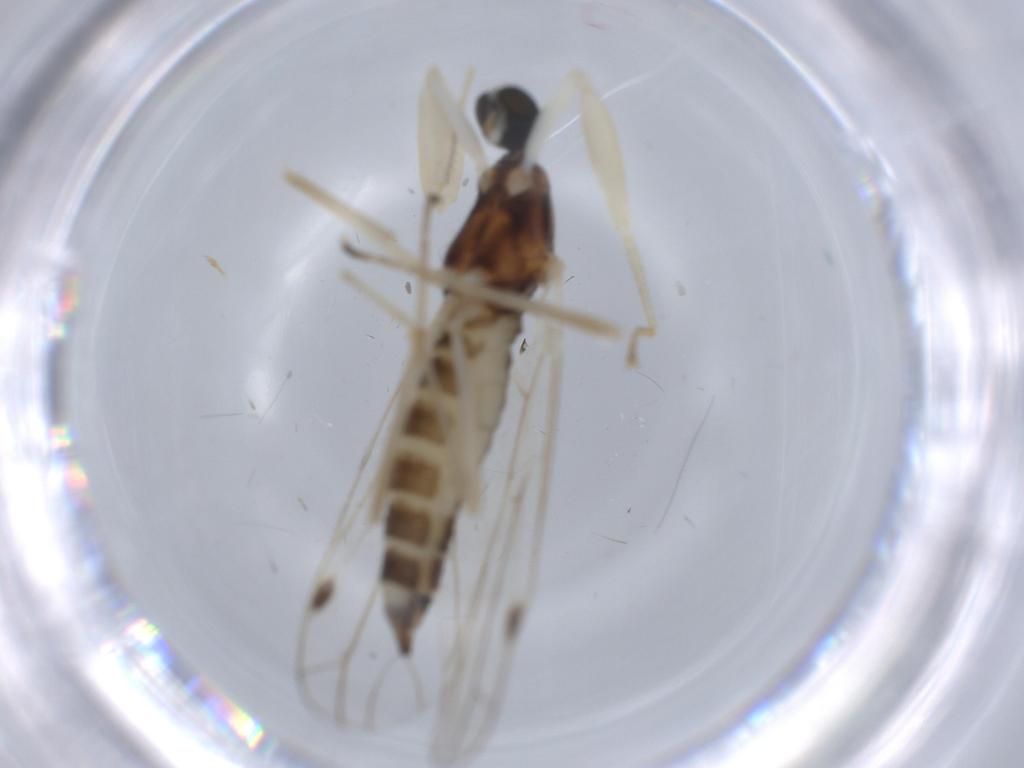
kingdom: Animalia
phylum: Arthropoda
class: Insecta
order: Diptera
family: Empididae
